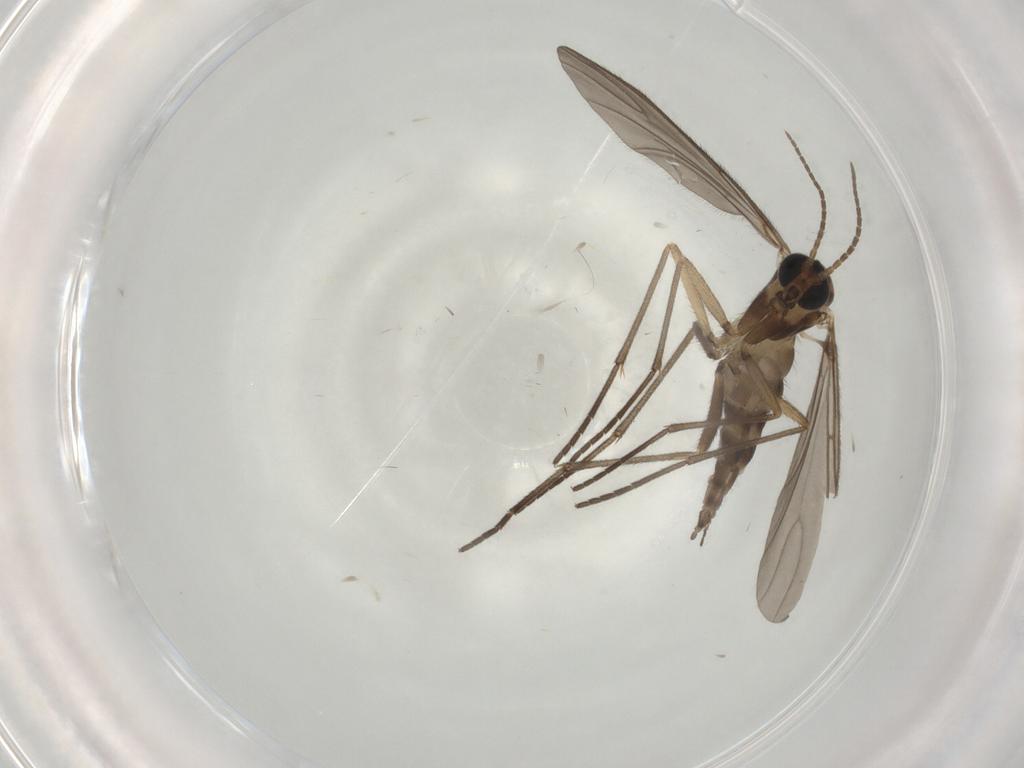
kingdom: Animalia
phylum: Arthropoda
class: Insecta
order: Diptera
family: Sciaridae
